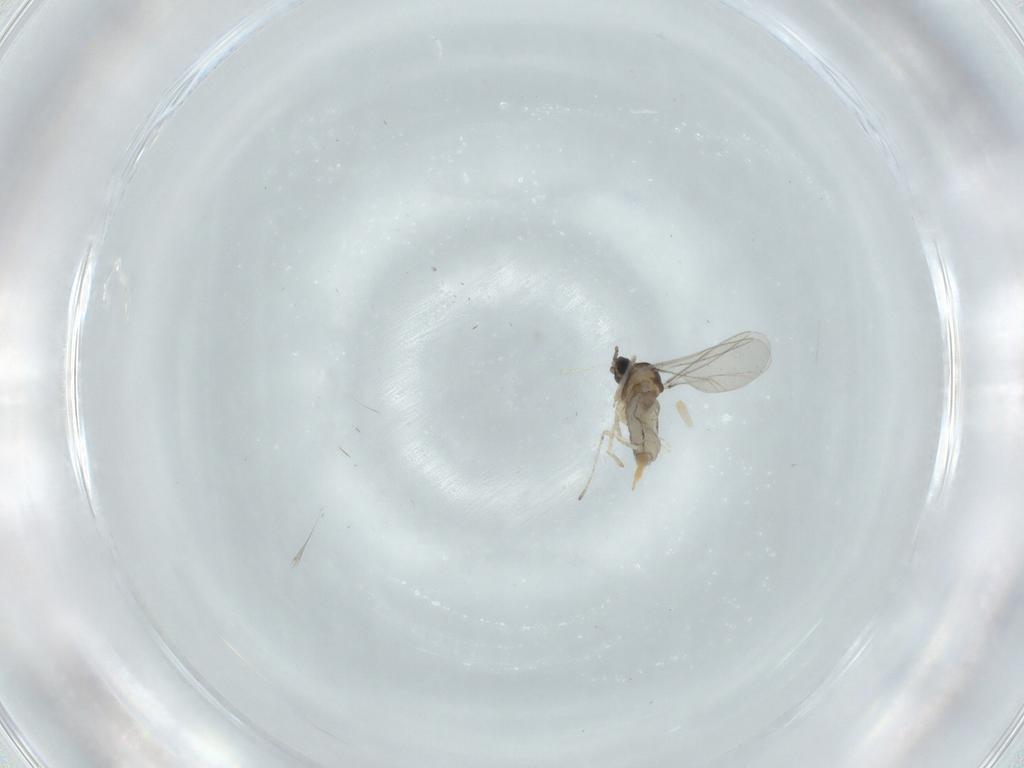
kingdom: Animalia
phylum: Arthropoda
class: Insecta
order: Diptera
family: Cecidomyiidae
